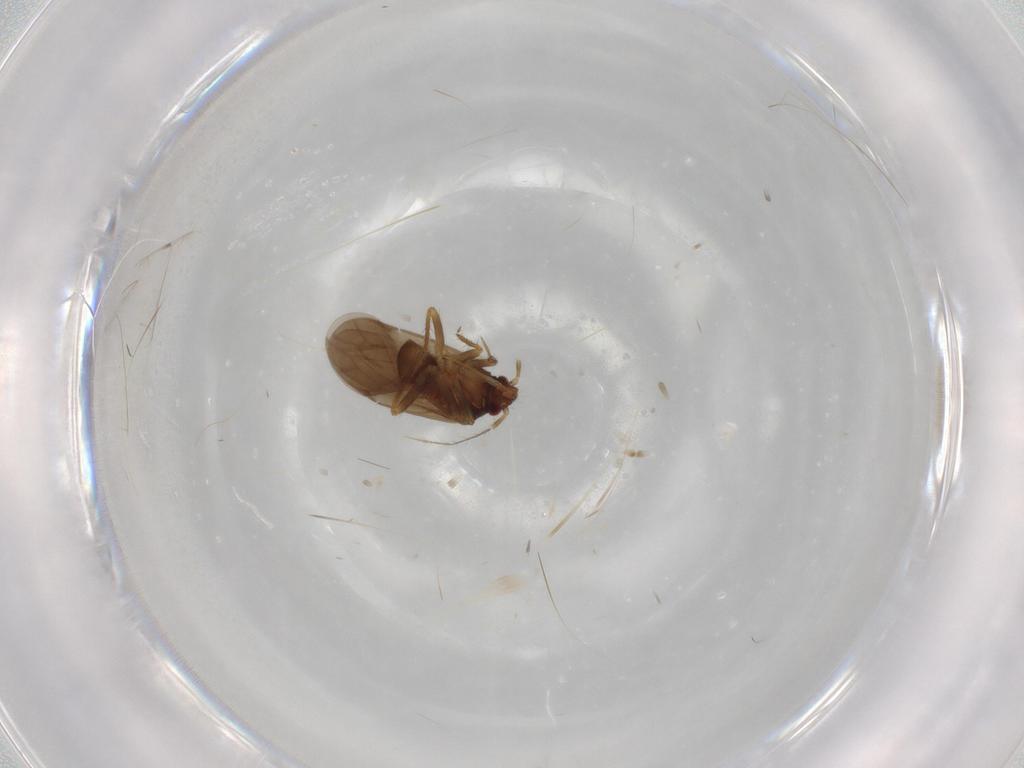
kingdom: Animalia
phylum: Arthropoda
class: Insecta
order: Hemiptera
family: Ceratocombidae
